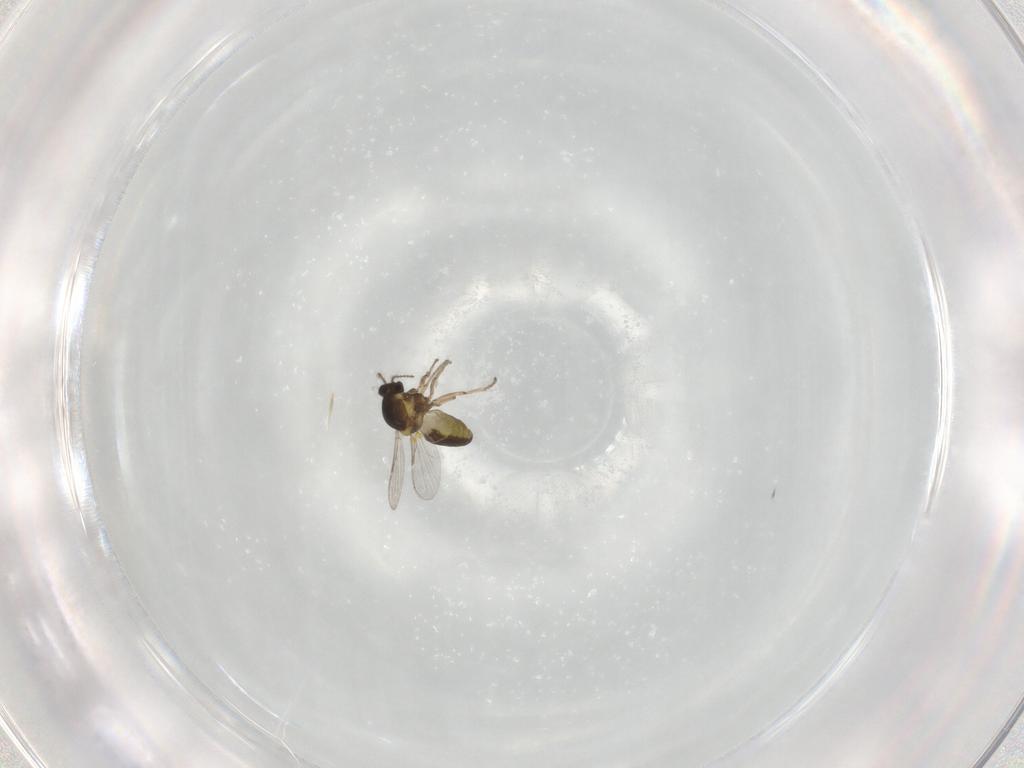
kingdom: Animalia
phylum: Arthropoda
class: Insecta
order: Diptera
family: Ceratopogonidae
